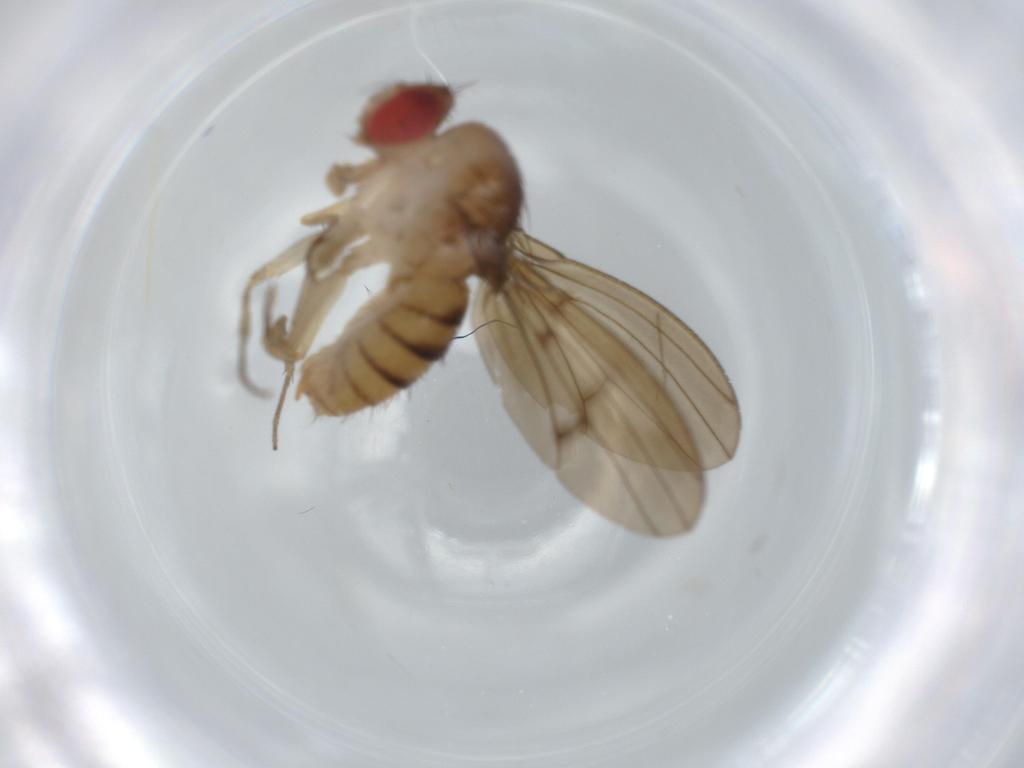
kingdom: Animalia
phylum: Arthropoda
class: Insecta
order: Diptera
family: Drosophilidae
